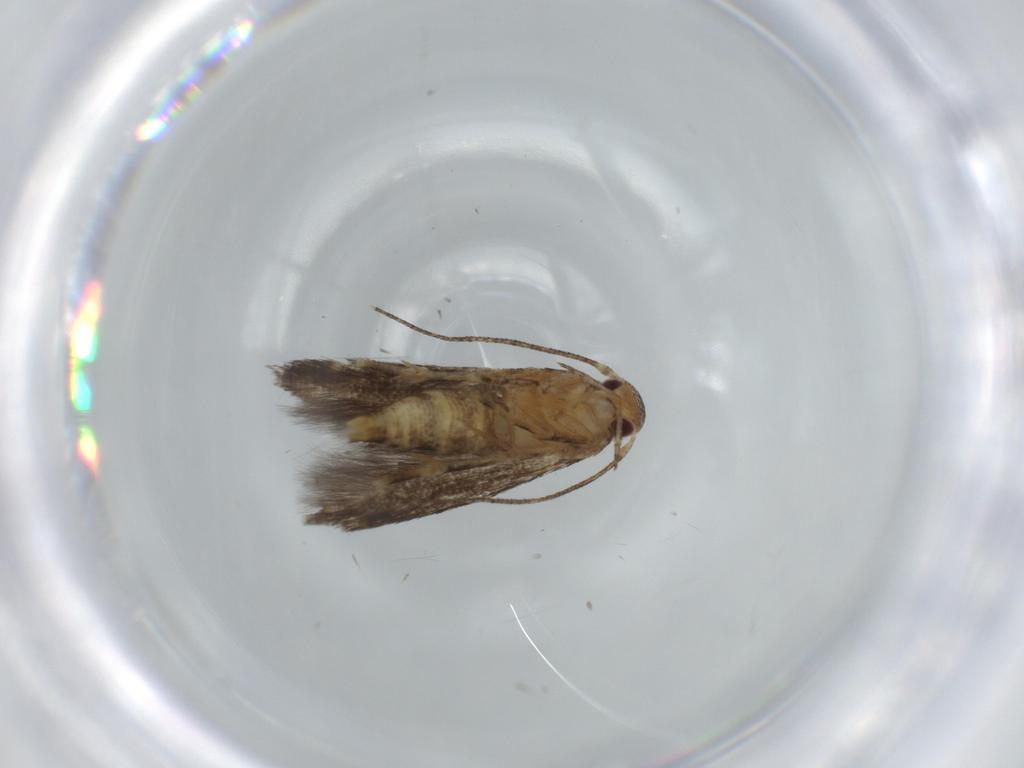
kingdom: Animalia
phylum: Arthropoda
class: Insecta
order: Lepidoptera
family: Momphidae
